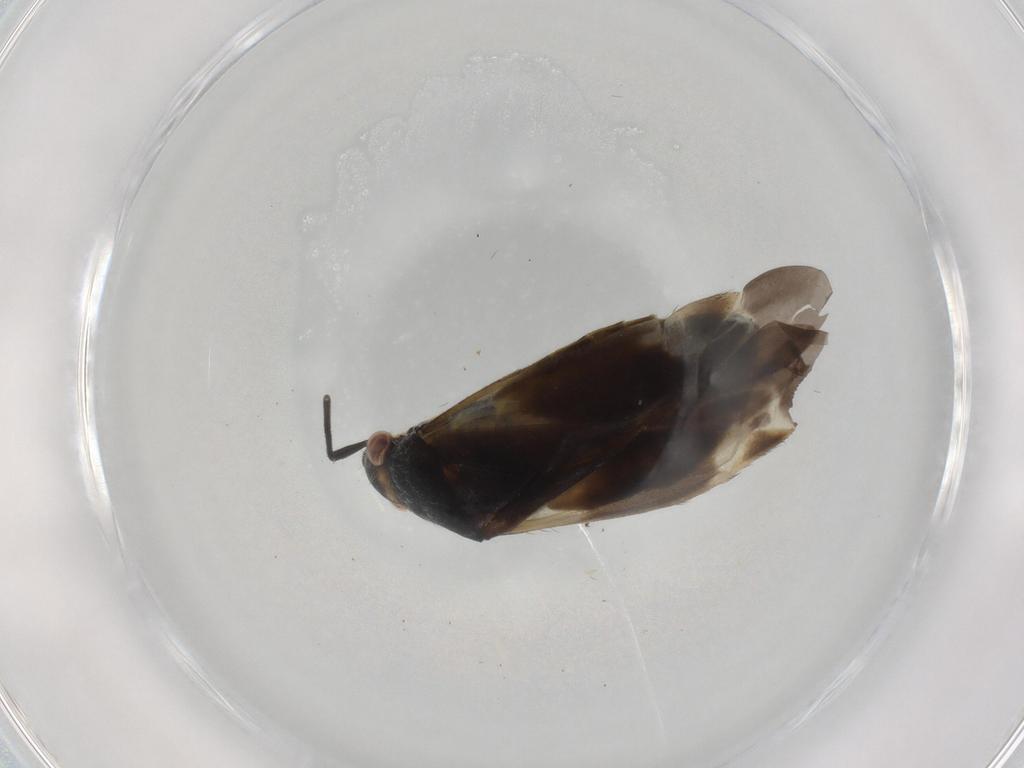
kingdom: Animalia
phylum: Arthropoda
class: Insecta
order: Hemiptera
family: Miridae
